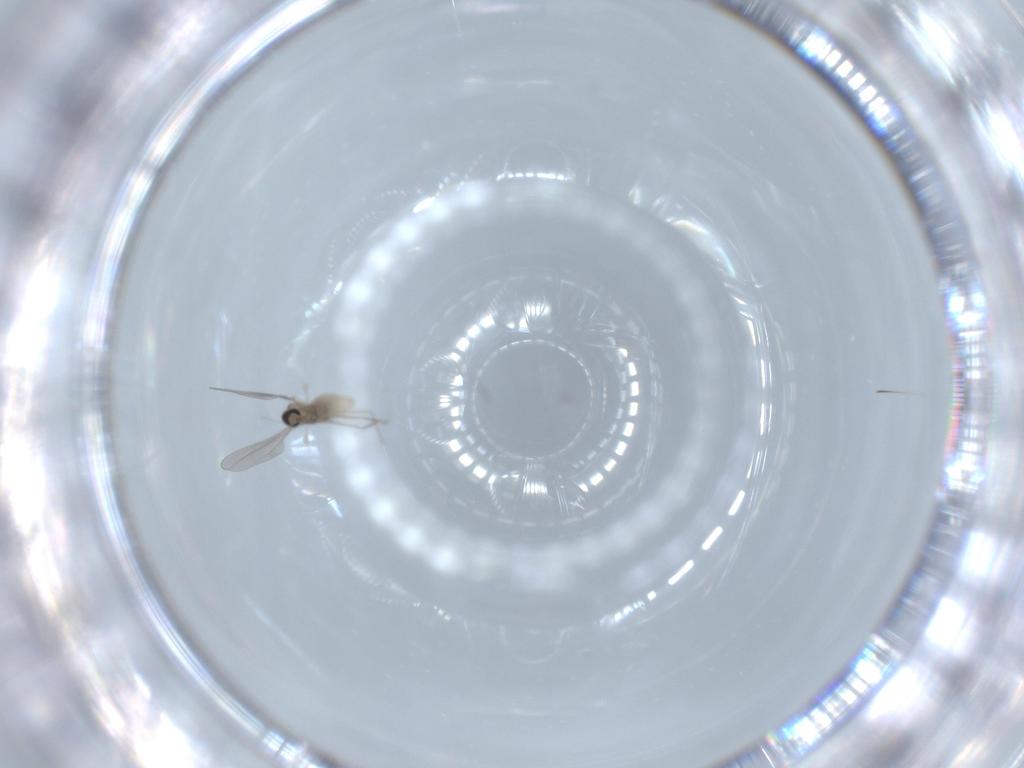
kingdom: Animalia
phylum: Arthropoda
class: Insecta
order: Diptera
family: Cecidomyiidae
